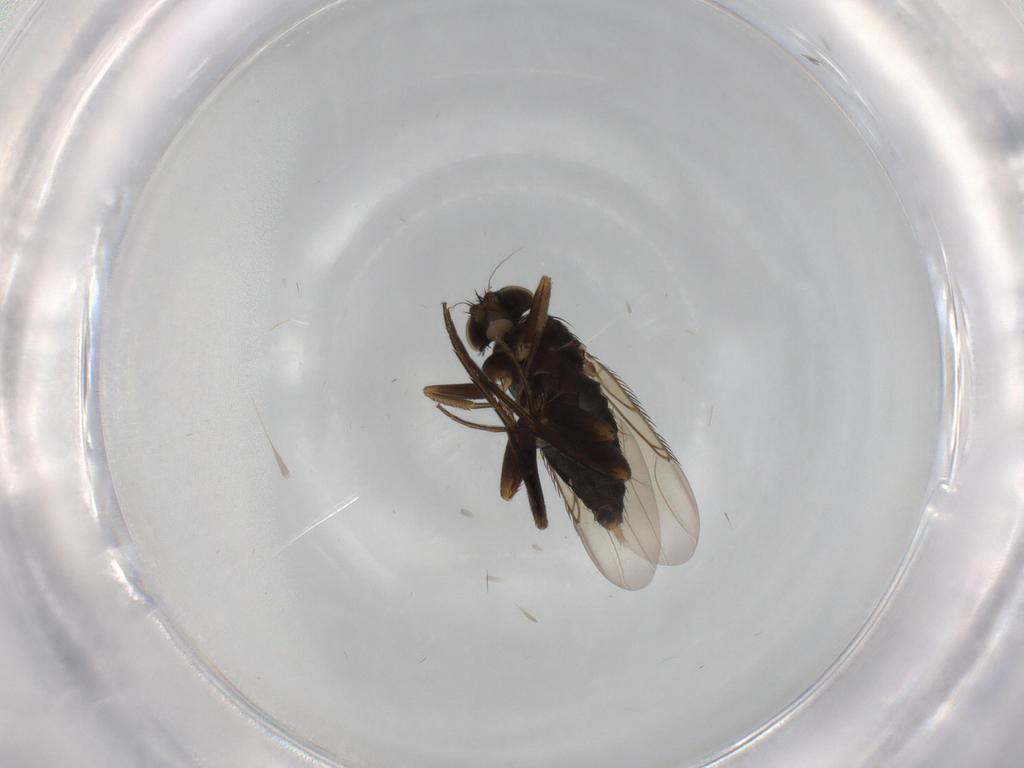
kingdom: Animalia
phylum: Arthropoda
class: Insecta
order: Diptera
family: Phoridae
